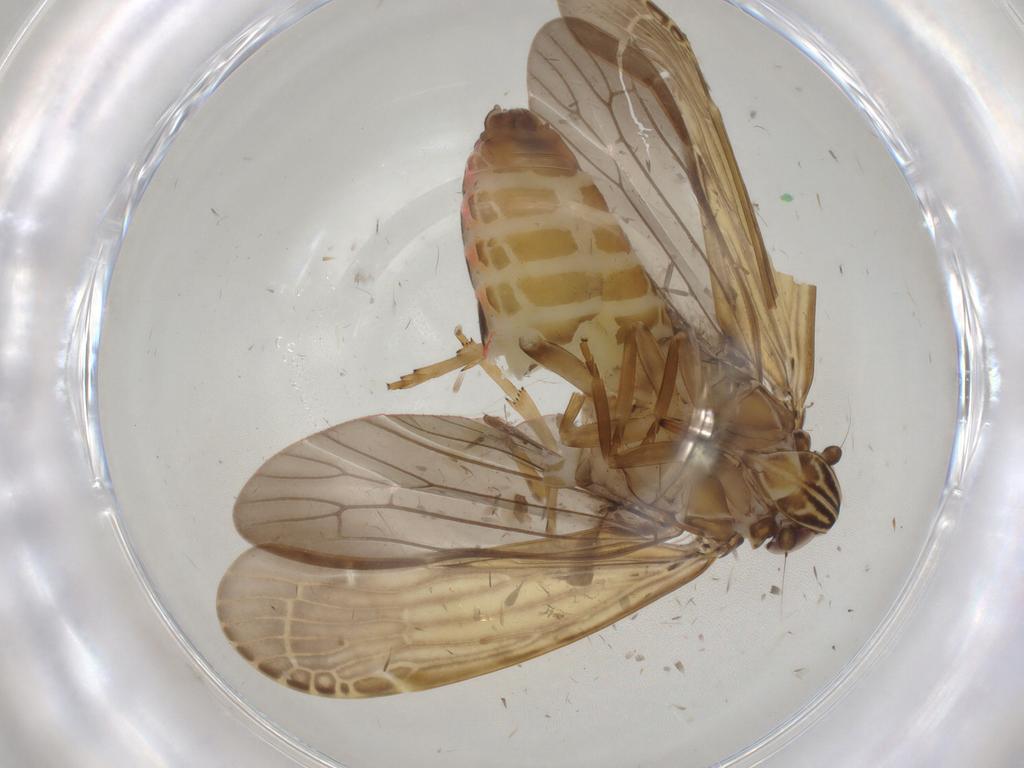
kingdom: Animalia
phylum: Arthropoda
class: Insecta
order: Hemiptera
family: Achilidae
